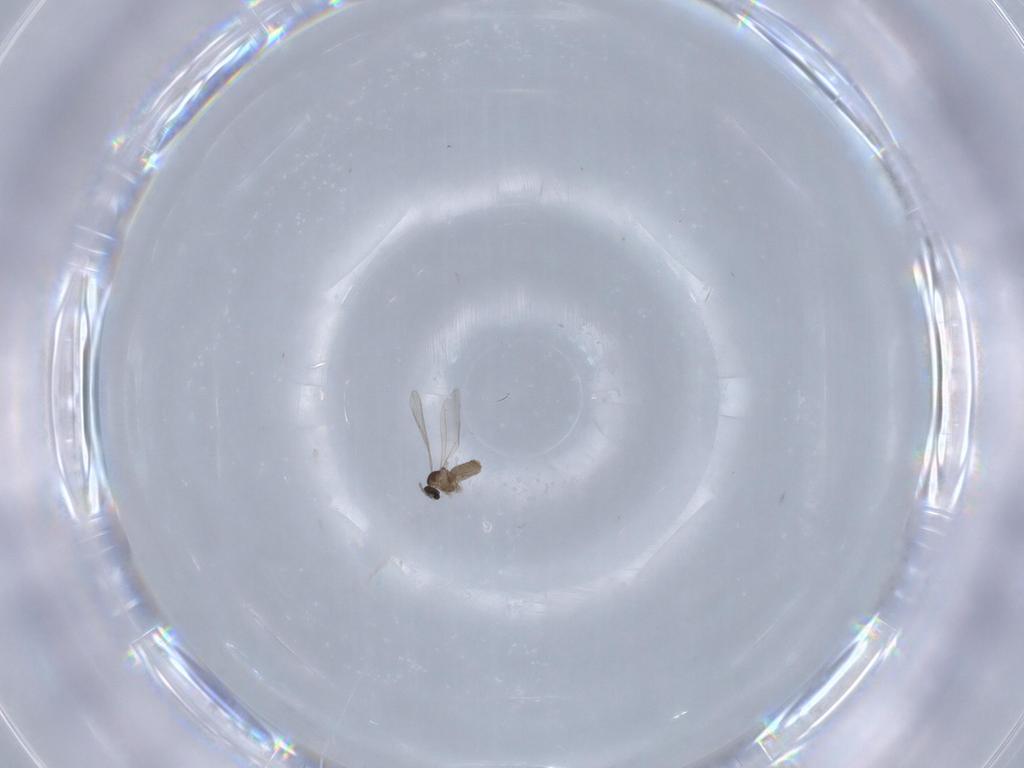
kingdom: Animalia
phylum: Arthropoda
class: Insecta
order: Diptera
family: Cecidomyiidae
